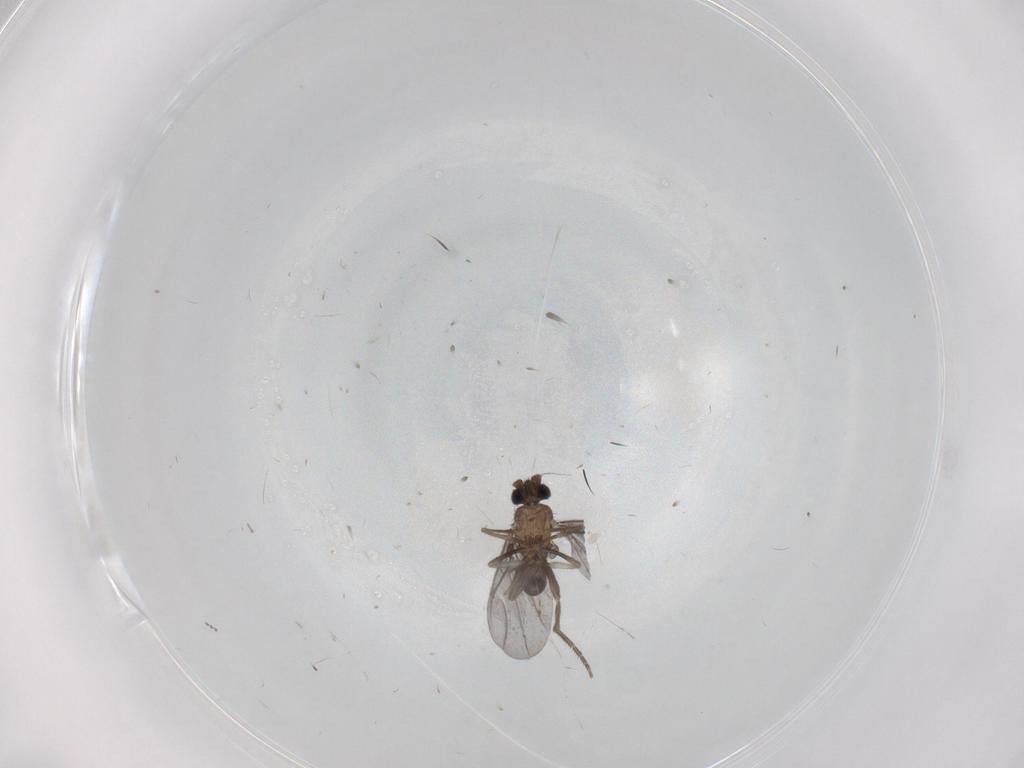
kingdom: Animalia
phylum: Arthropoda
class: Insecta
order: Diptera
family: Phoridae
